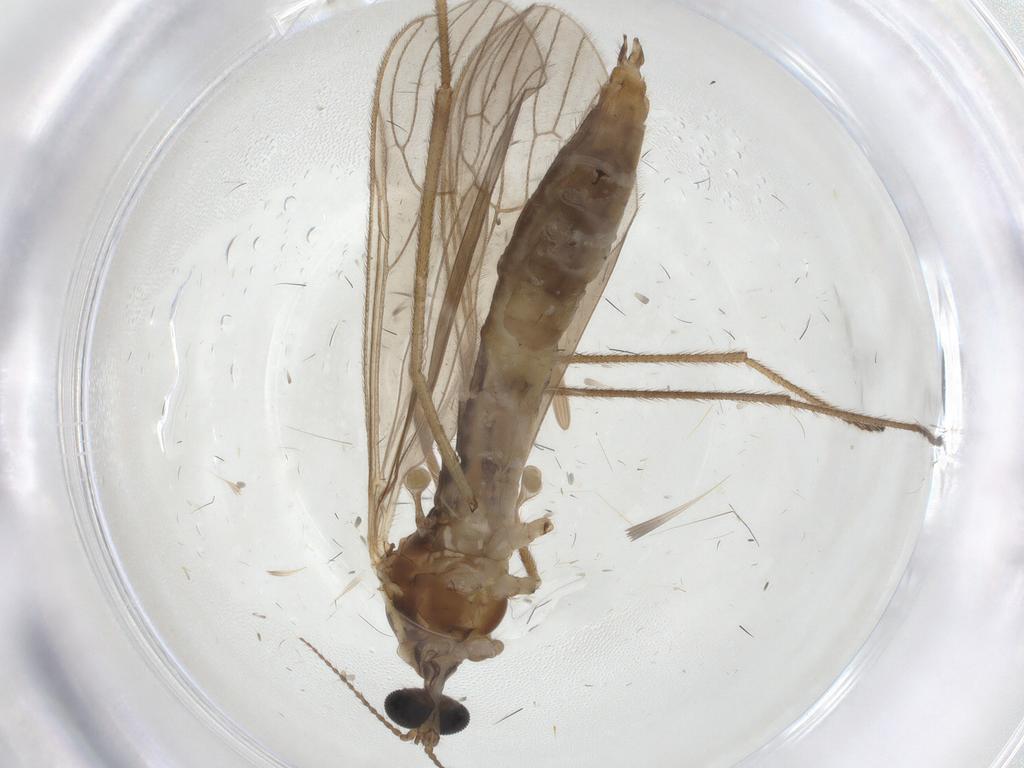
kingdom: Animalia
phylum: Arthropoda
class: Insecta
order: Diptera
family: Limoniidae
